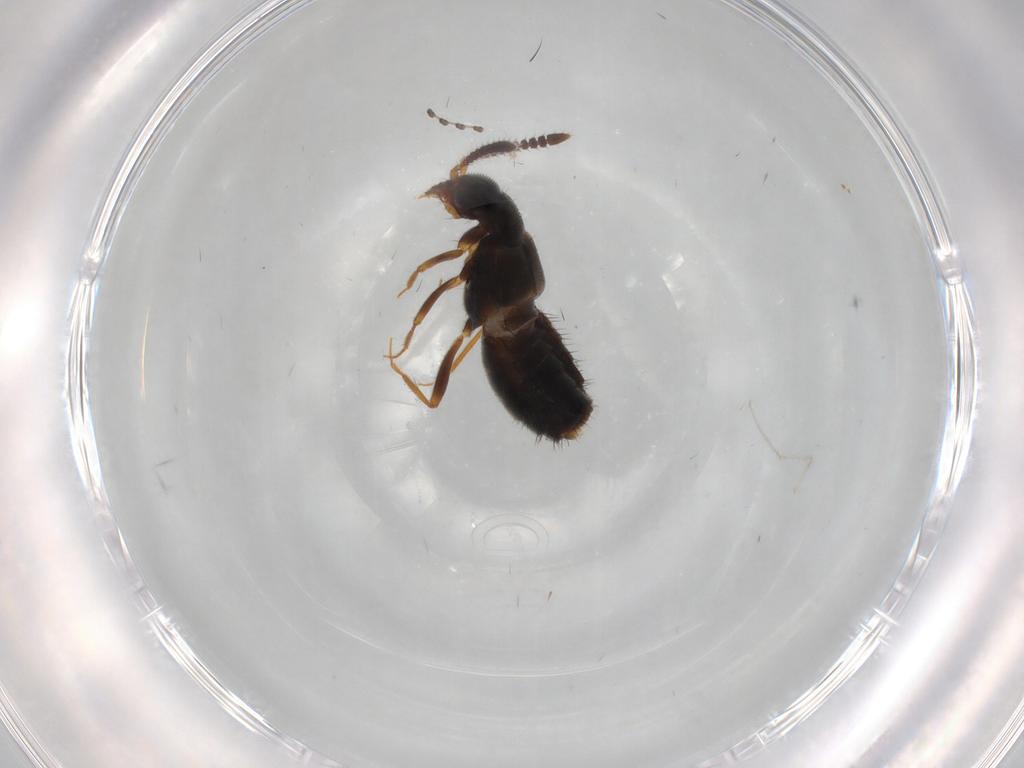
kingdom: Animalia
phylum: Arthropoda
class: Insecta
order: Coleoptera
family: Staphylinidae
